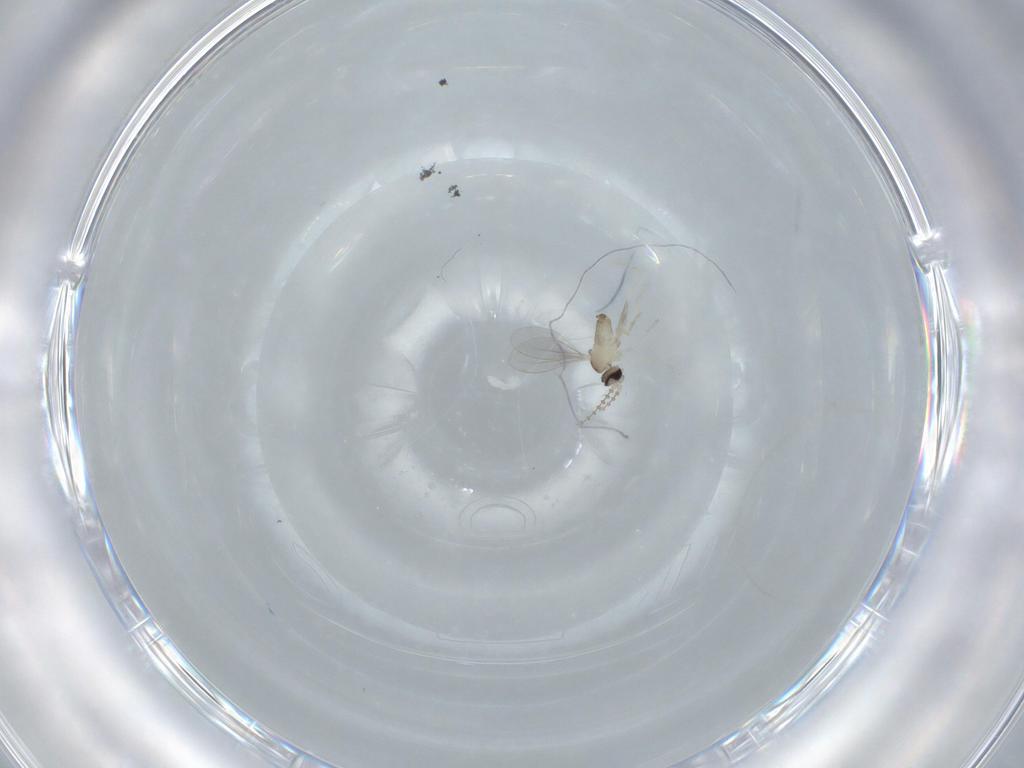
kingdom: Animalia
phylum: Arthropoda
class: Insecta
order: Diptera
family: Cecidomyiidae
